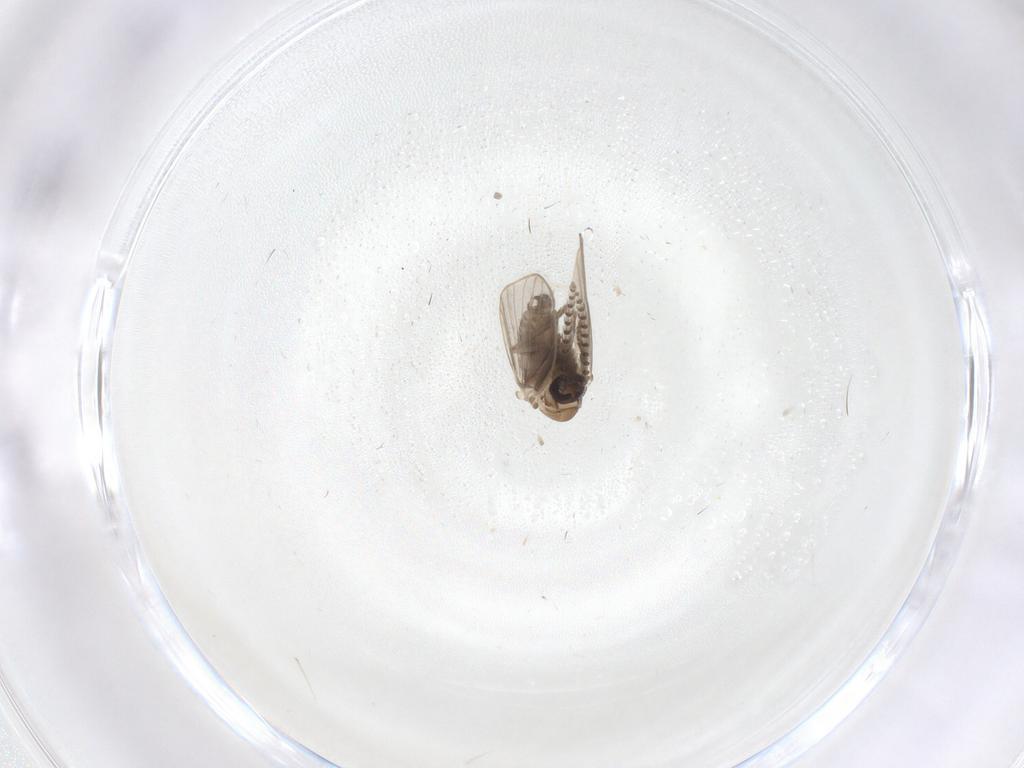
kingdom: Animalia
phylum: Arthropoda
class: Insecta
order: Diptera
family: Psychodidae
